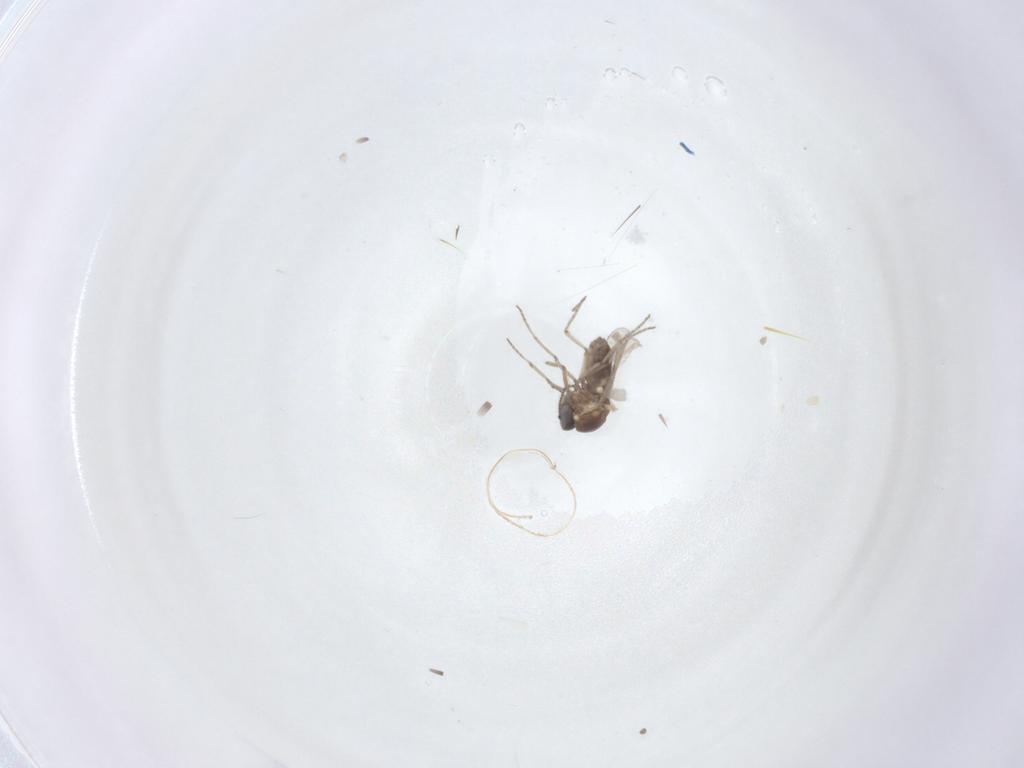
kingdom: Animalia
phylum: Arthropoda
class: Insecta
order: Diptera
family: Ceratopogonidae
